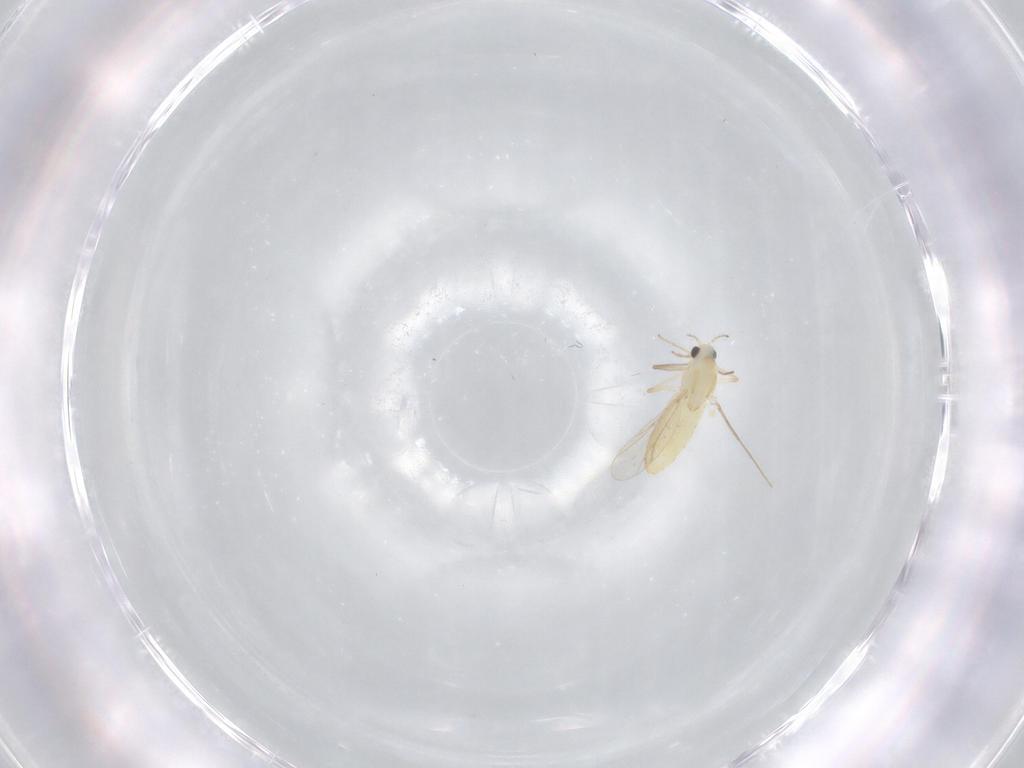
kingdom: Animalia
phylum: Arthropoda
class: Insecta
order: Diptera
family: Chironomidae
